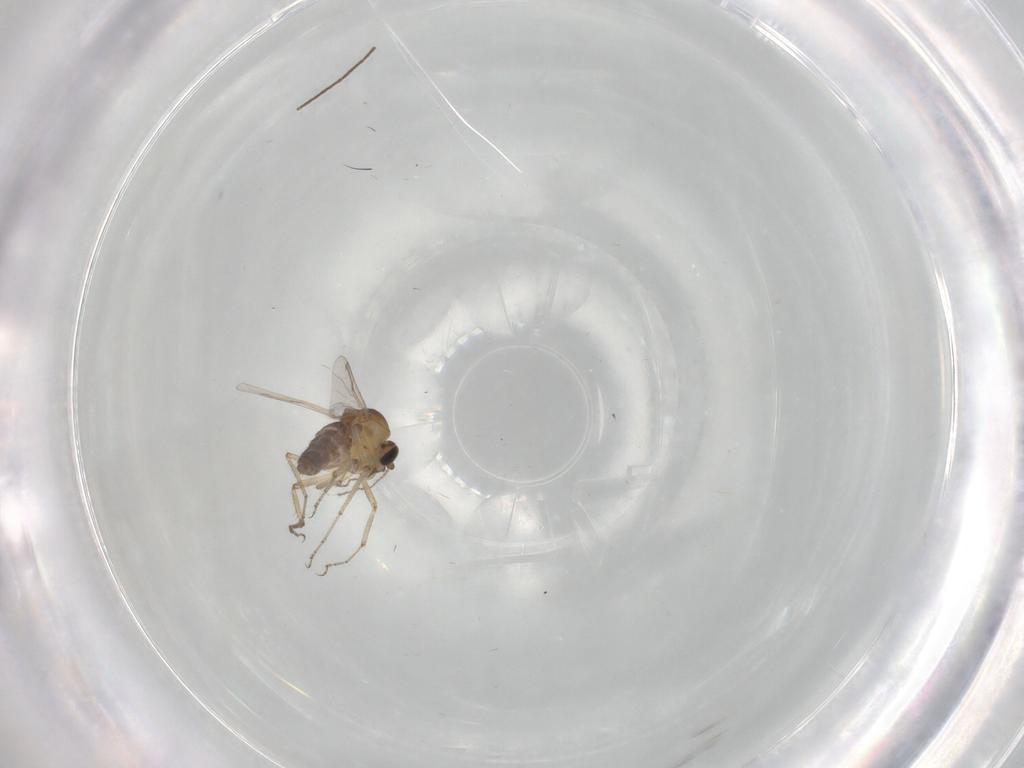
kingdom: Animalia
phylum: Arthropoda
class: Insecta
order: Diptera
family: Ceratopogonidae
